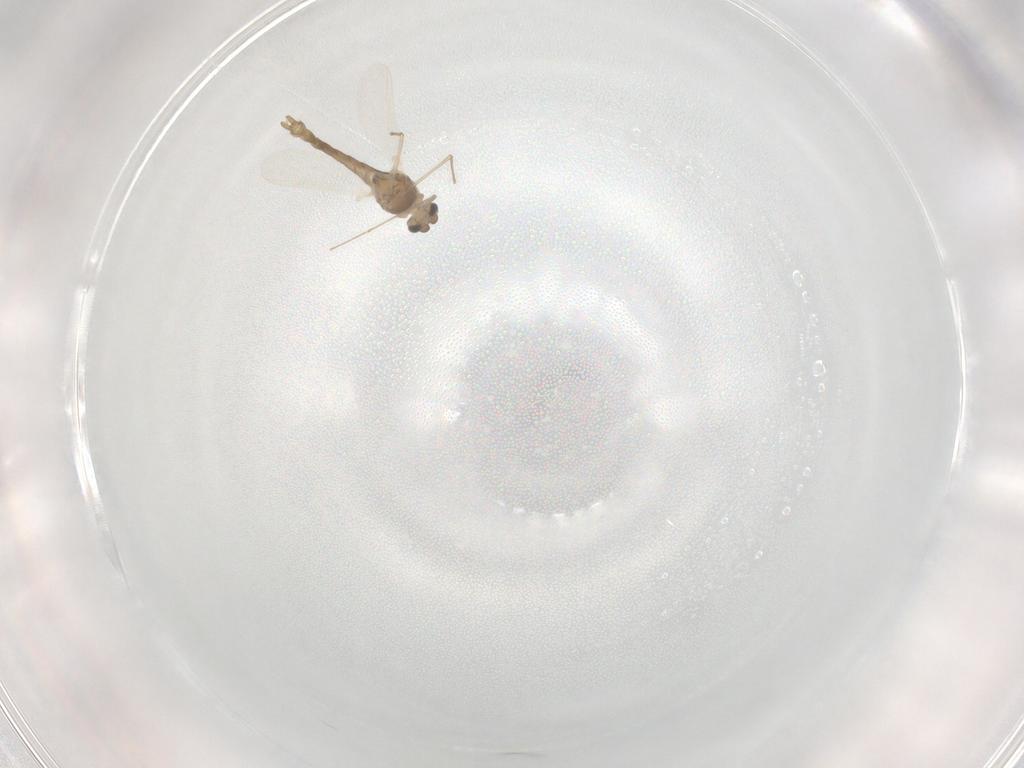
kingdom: Animalia
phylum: Arthropoda
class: Insecta
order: Diptera
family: Chironomidae
